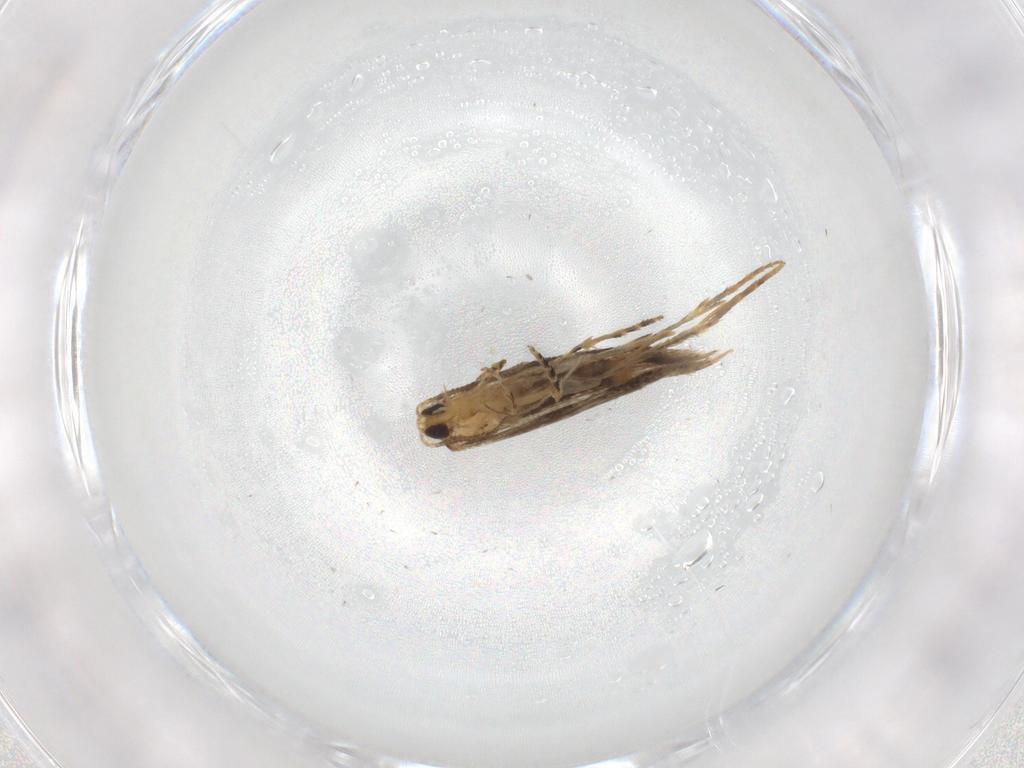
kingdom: Animalia
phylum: Arthropoda
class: Insecta
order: Lepidoptera
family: Tineidae
